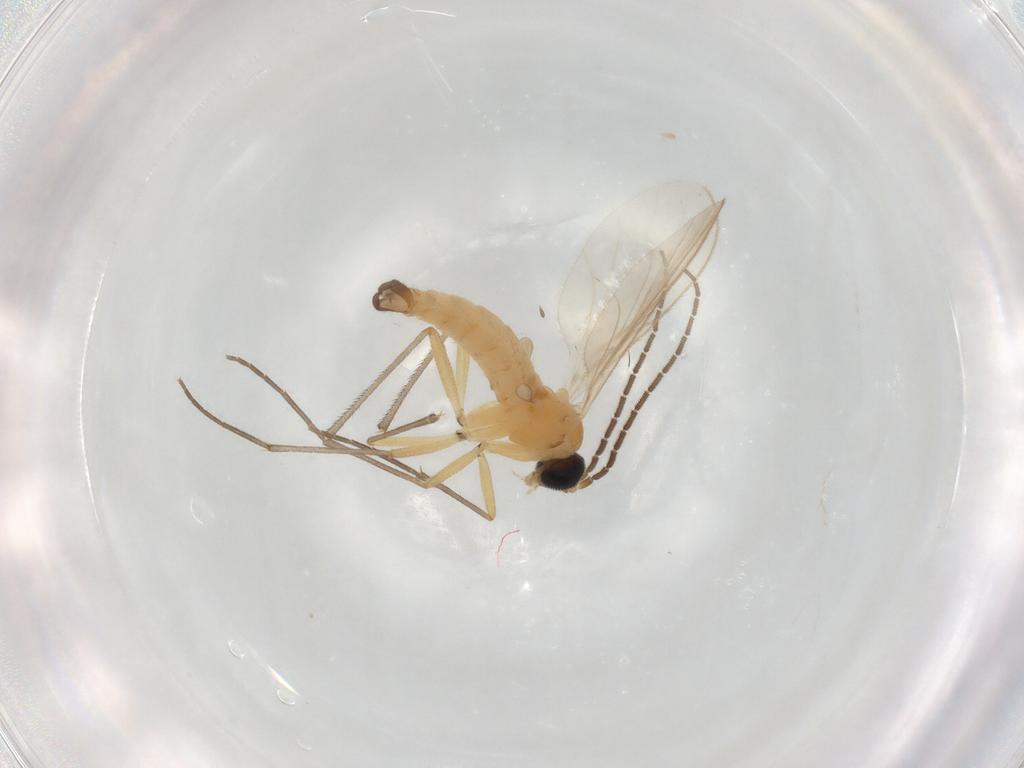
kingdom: Animalia
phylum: Arthropoda
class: Insecta
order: Diptera
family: Sciaridae
